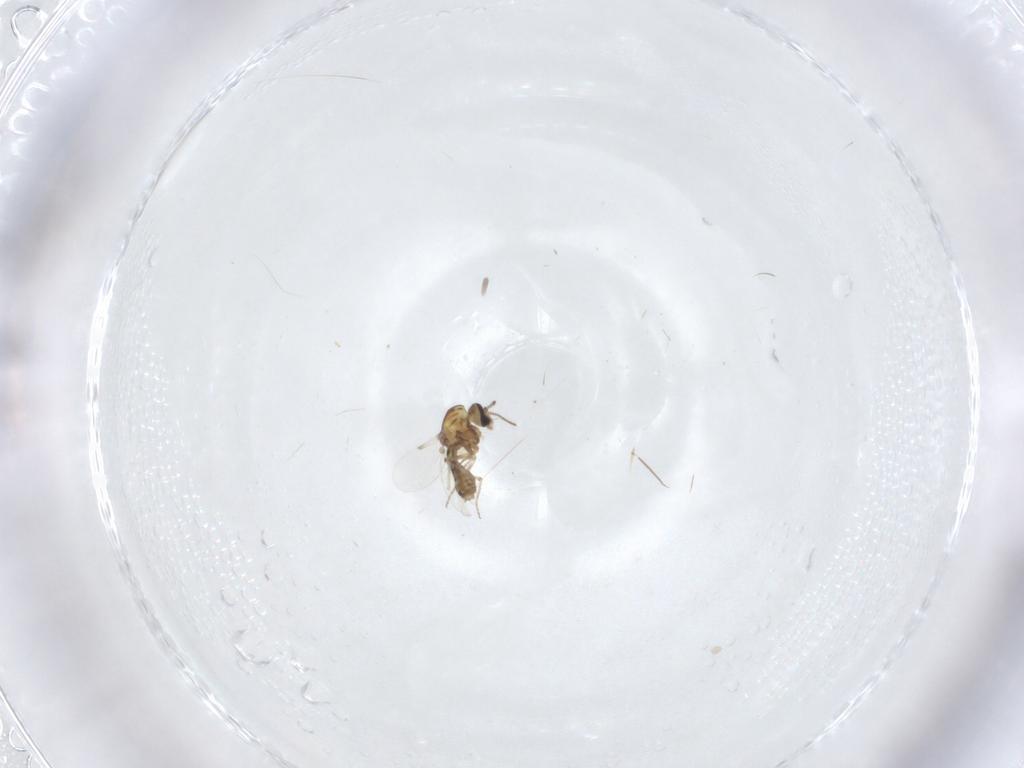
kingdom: Animalia
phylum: Arthropoda
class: Insecta
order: Diptera
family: Ceratopogonidae
